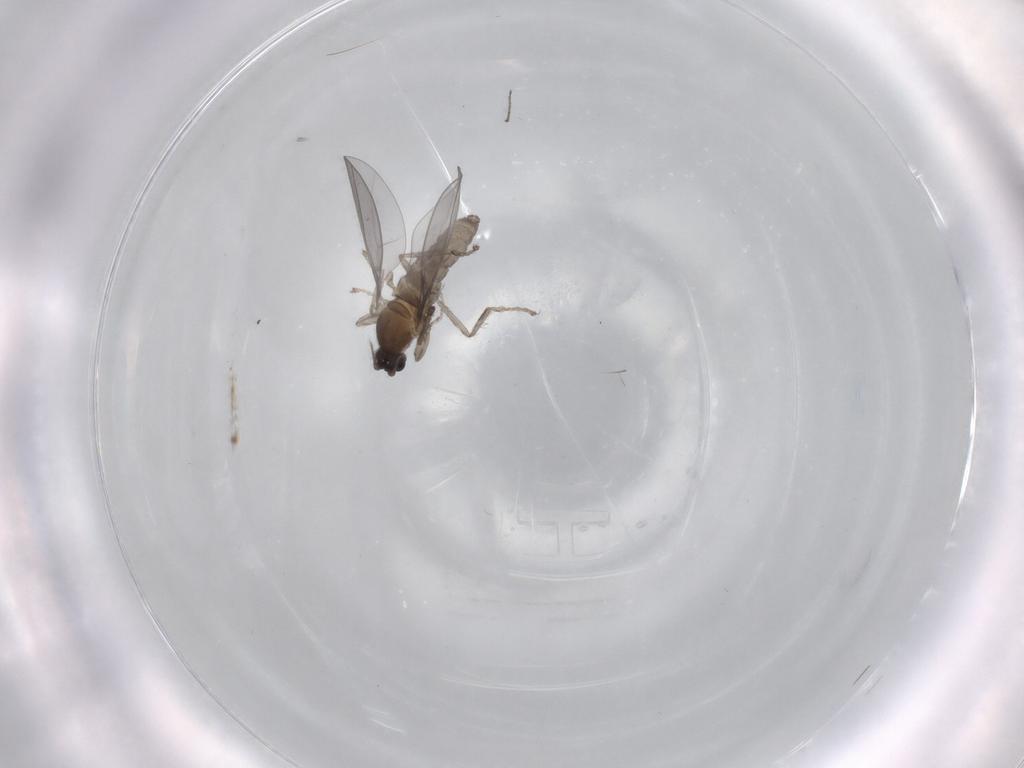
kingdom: Animalia
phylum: Arthropoda
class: Insecta
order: Diptera
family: Cecidomyiidae
